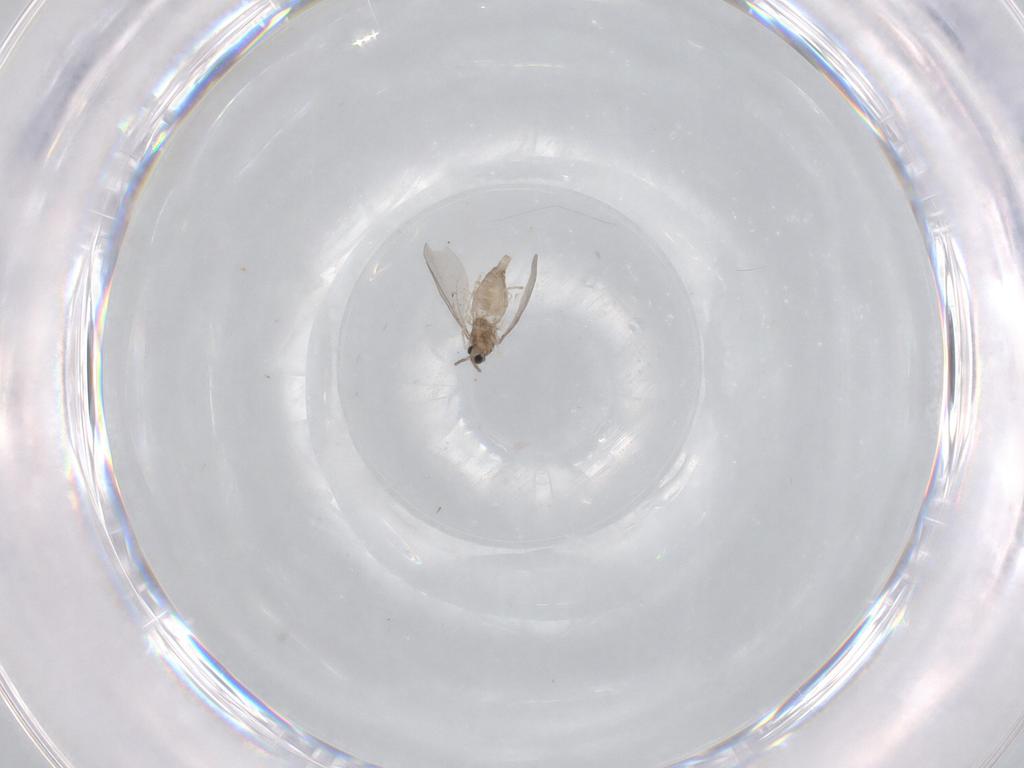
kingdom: Animalia
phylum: Arthropoda
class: Insecta
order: Diptera
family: Cecidomyiidae
